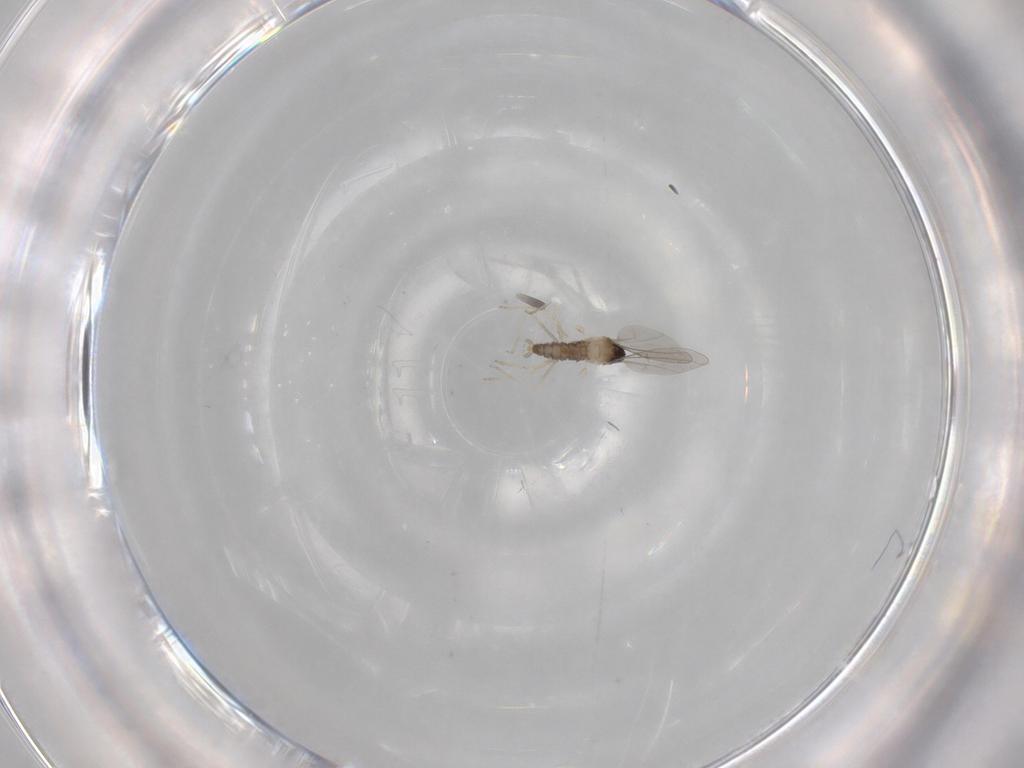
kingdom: Animalia
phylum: Arthropoda
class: Insecta
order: Diptera
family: Cecidomyiidae
